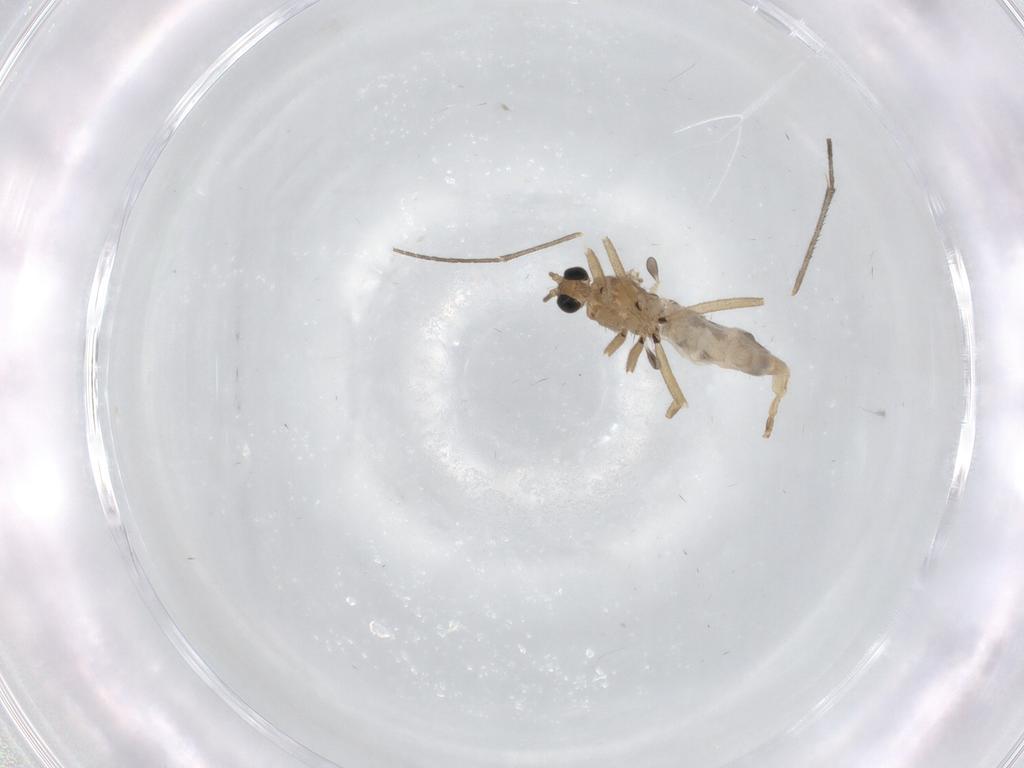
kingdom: Animalia
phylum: Arthropoda
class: Insecta
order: Diptera
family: Sciaridae
